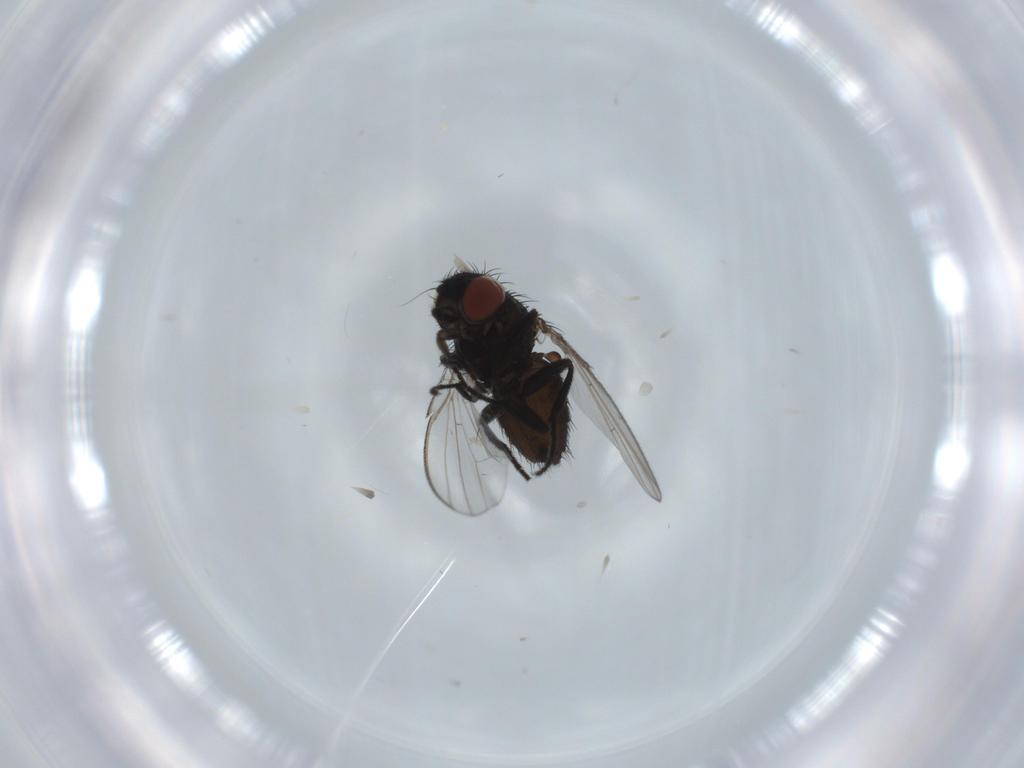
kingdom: Animalia
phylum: Arthropoda
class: Insecta
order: Diptera
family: Milichiidae
